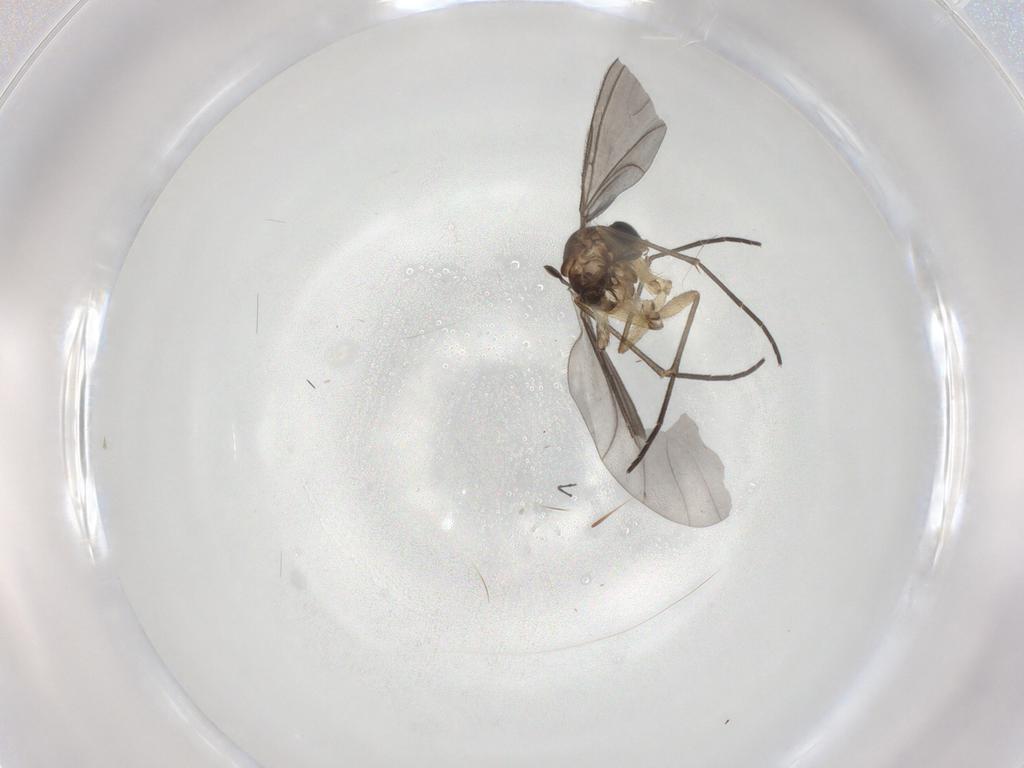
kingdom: Animalia
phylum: Arthropoda
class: Insecta
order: Diptera
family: Sciaridae
